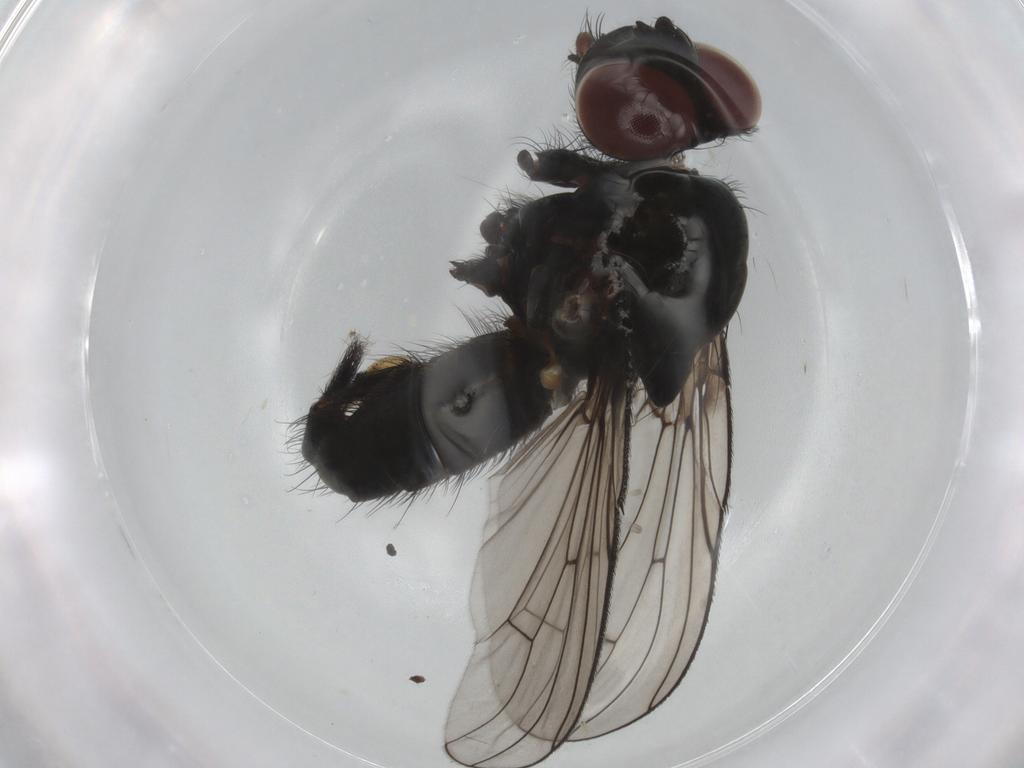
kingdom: Animalia
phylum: Arthropoda
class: Insecta
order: Diptera
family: Anthomyiidae
